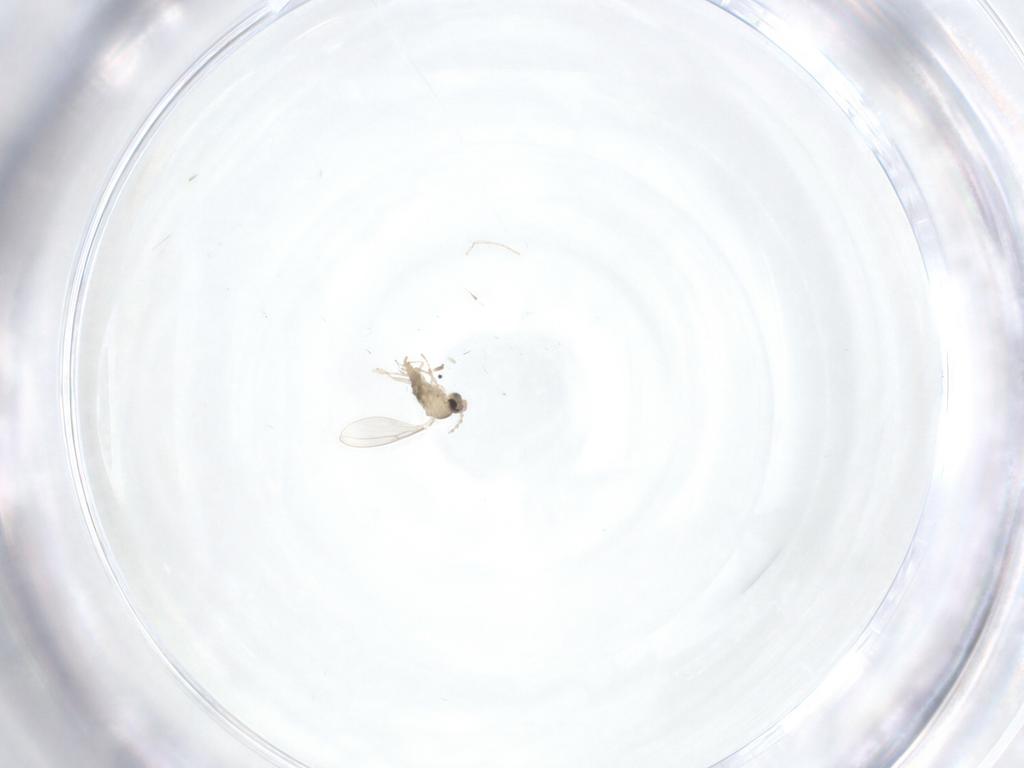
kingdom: Animalia
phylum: Arthropoda
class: Insecta
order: Diptera
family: Cecidomyiidae
